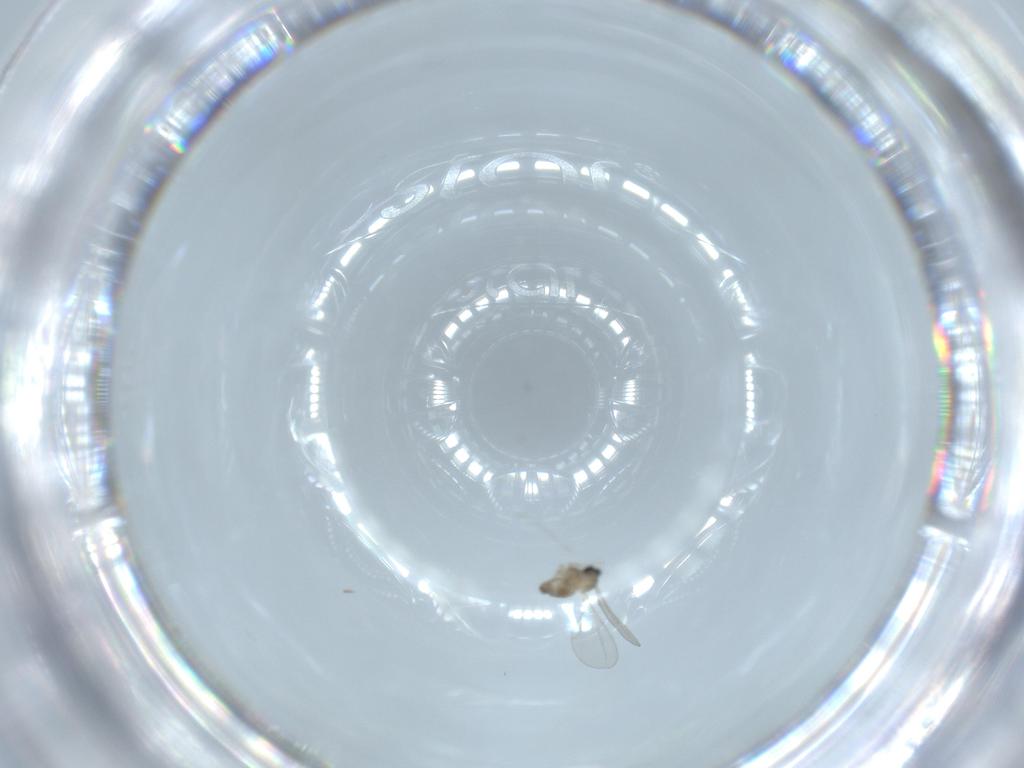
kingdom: Animalia
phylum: Arthropoda
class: Insecta
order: Diptera
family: Cecidomyiidae
